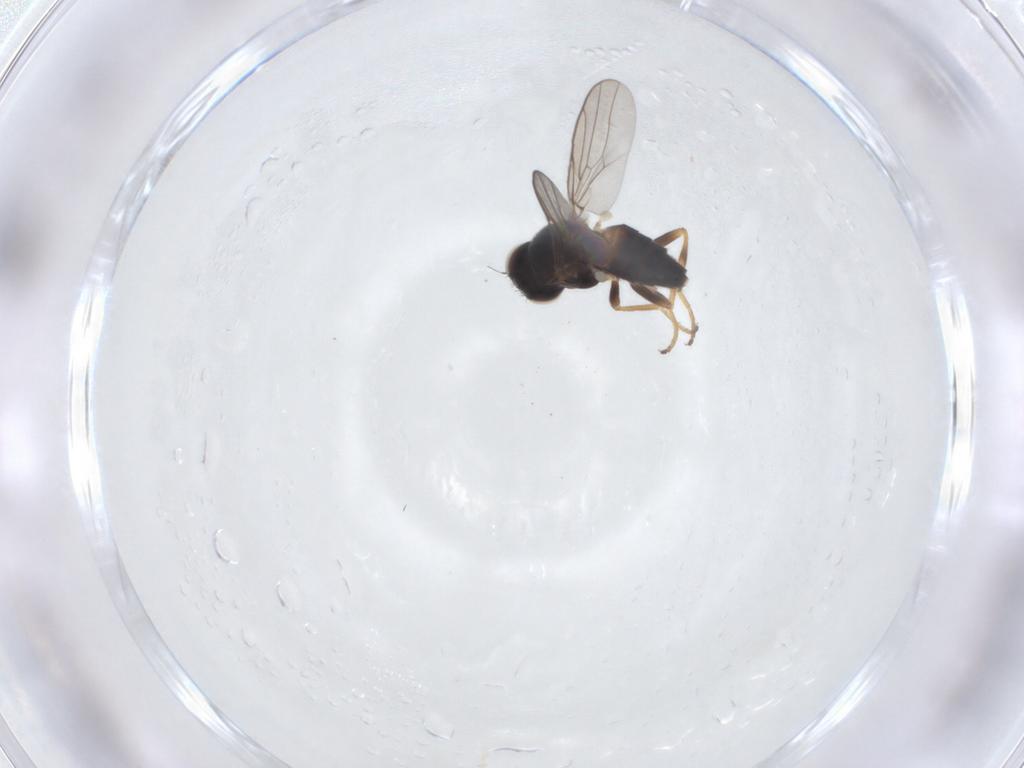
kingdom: Animalia
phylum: Arthropoda
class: Insecta
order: Diptera
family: Chloropidae
